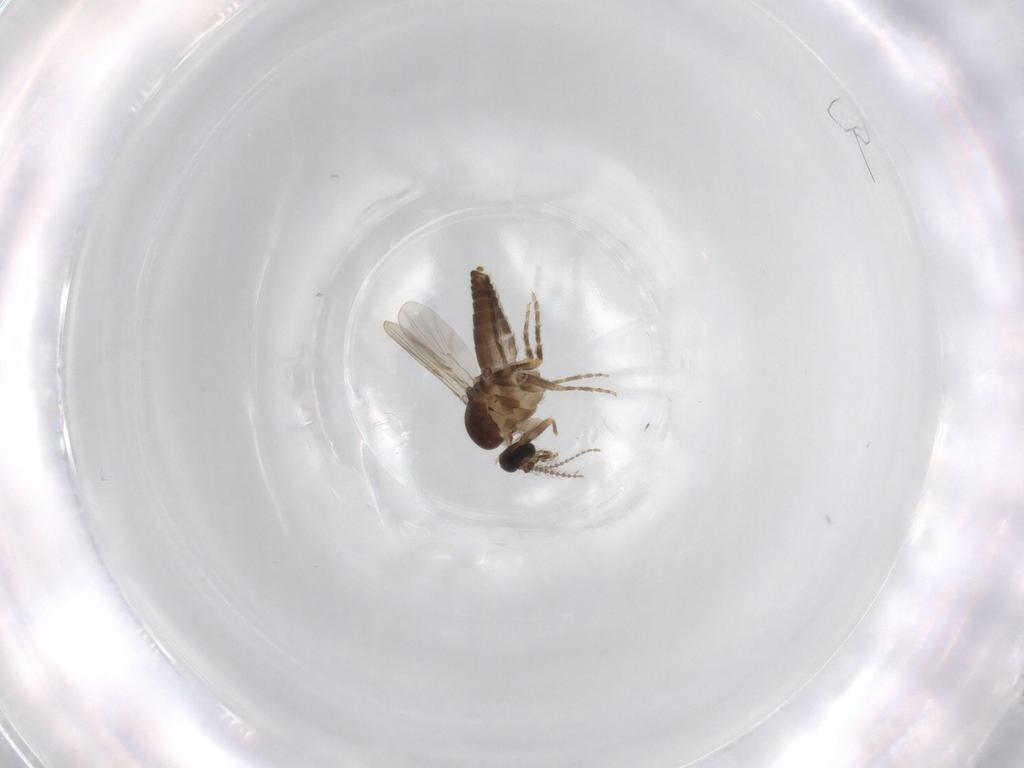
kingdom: Animalia
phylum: Arthropoda
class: Insecta
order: Diptera
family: Ceratopogonidae
